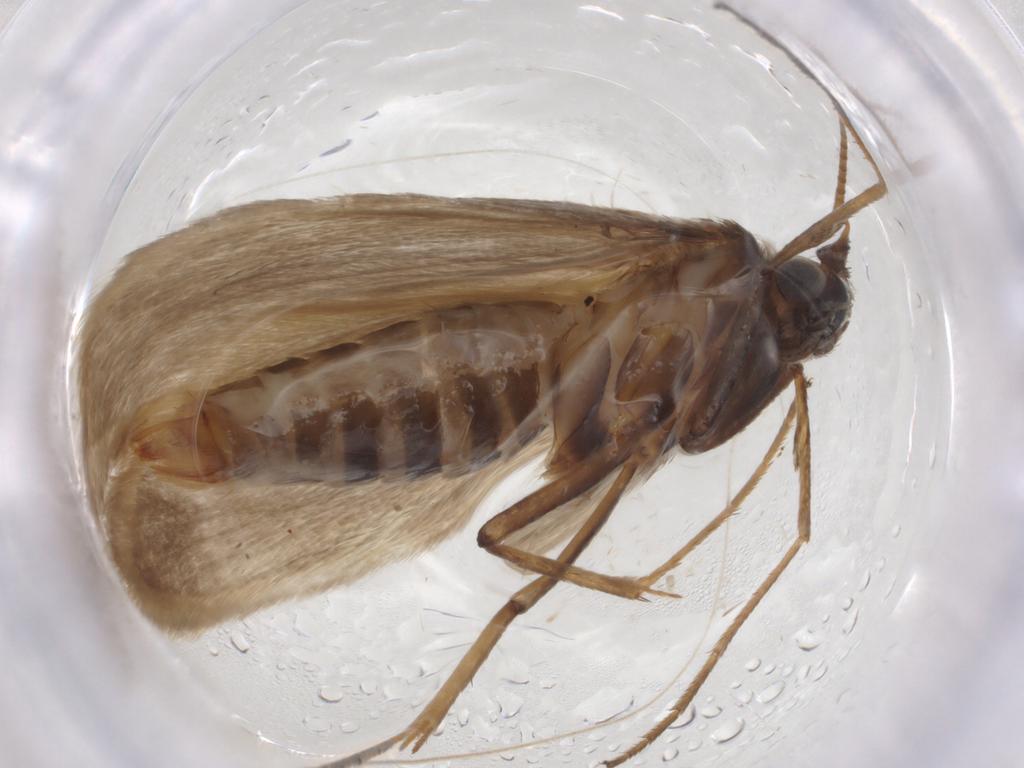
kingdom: Animalia
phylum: Arthropoda
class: Insecta
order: Lepidoptera
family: Adelidae
